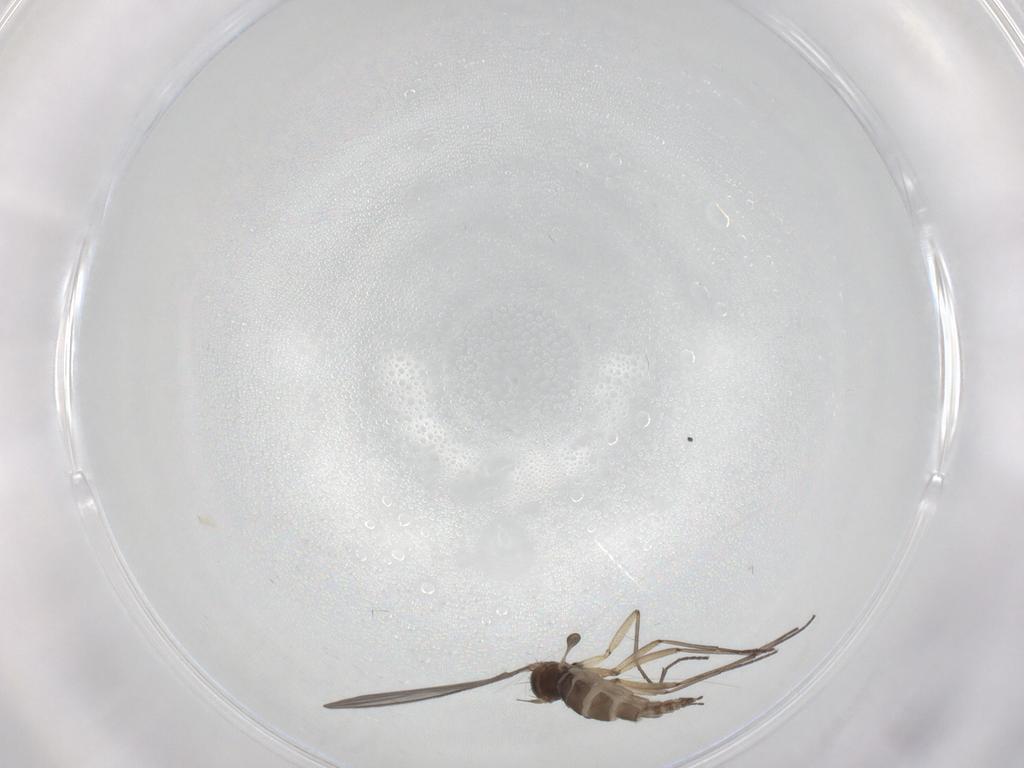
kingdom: Animalia
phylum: Arthropoda
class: Insecta
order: Diptera
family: Sciaridae
